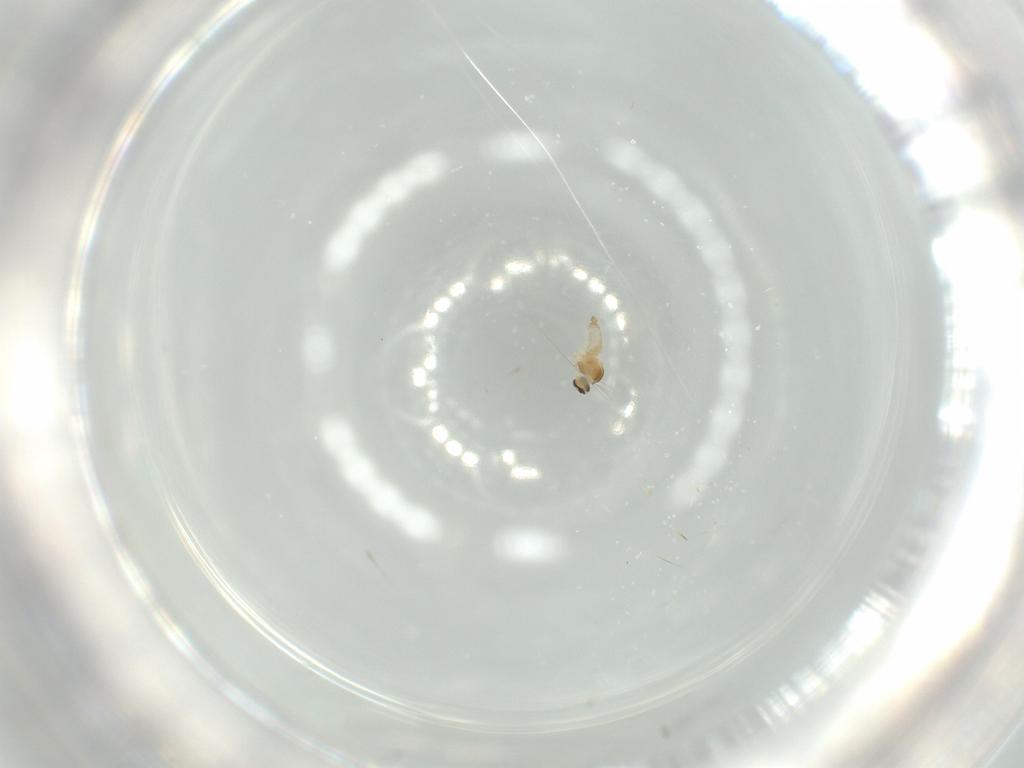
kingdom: Animalia
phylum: Arthropoda
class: Insecta
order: Diptera
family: Cecidomyiidae
